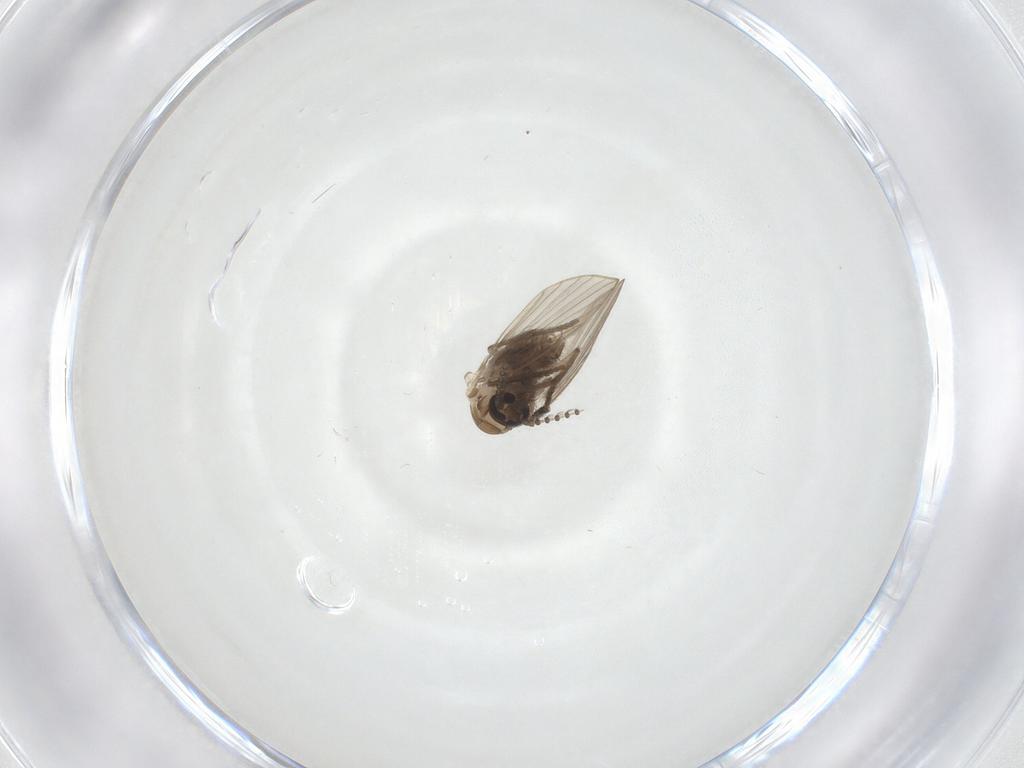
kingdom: Animalia
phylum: Arthropoda
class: Insecta
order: Diptera
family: Psychodidae
